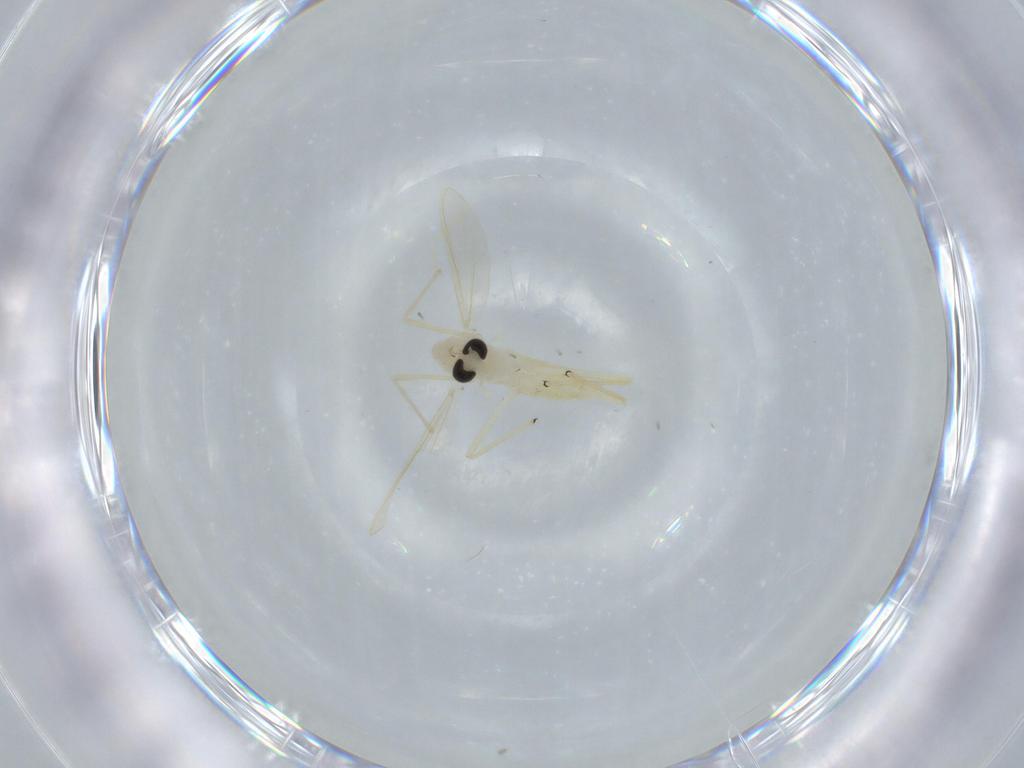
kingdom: Animalia
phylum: Arthropoda
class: Insecta
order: Diptera
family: Chironomidae
